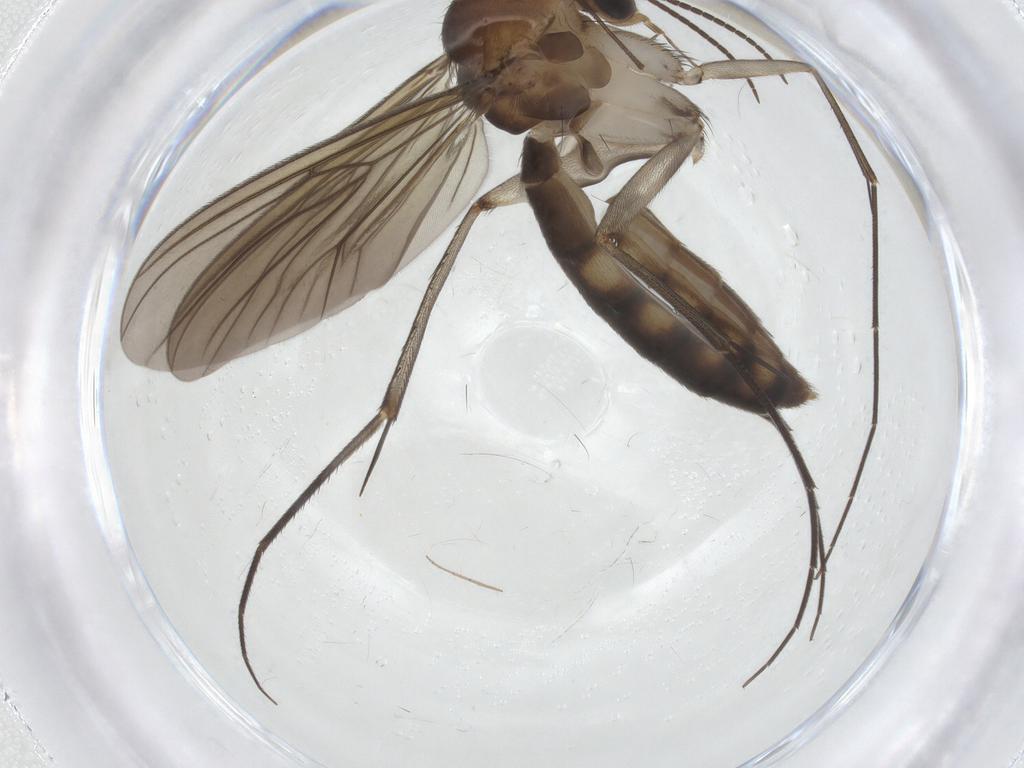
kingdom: Animalia
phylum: Arthropoda
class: Insecta
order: Diptera
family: Mycetophilidae
